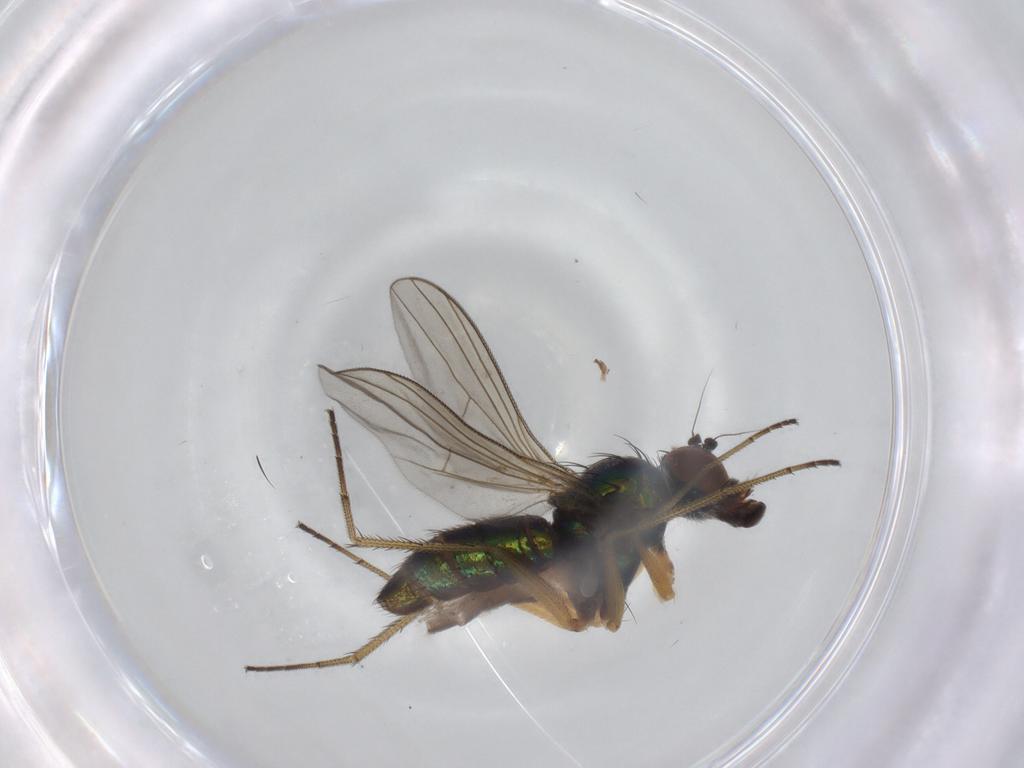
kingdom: Animalia
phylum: Arthropoda
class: Insecta
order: Diptera
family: Dolichopodidae
